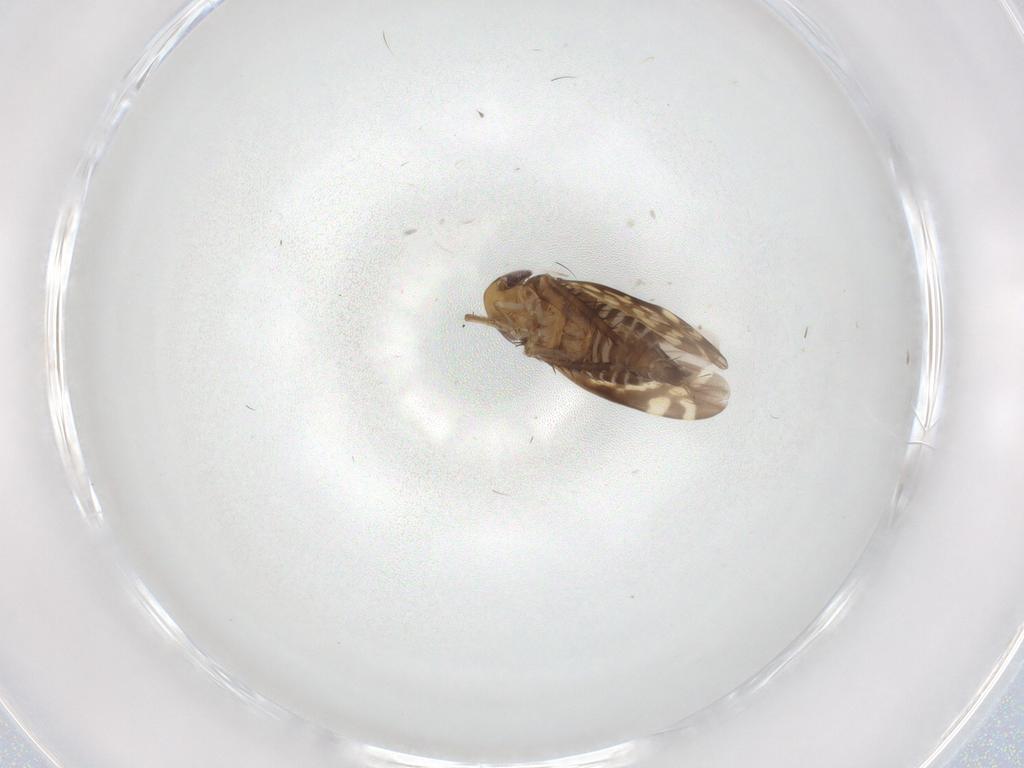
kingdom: Animalia
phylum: Arthropoda
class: Insecta
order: Hemiptera
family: Cicadellidae
